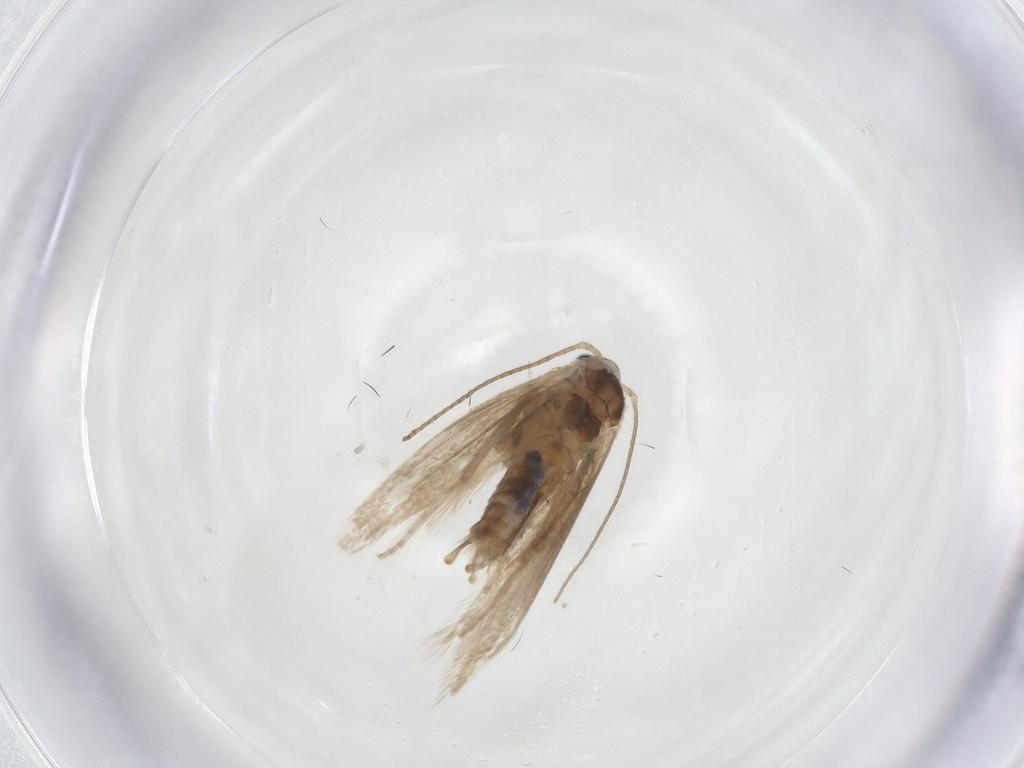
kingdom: Animalia
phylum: Arthropoda
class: Insecta
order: Lepidoptera
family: Bucculatricidae
